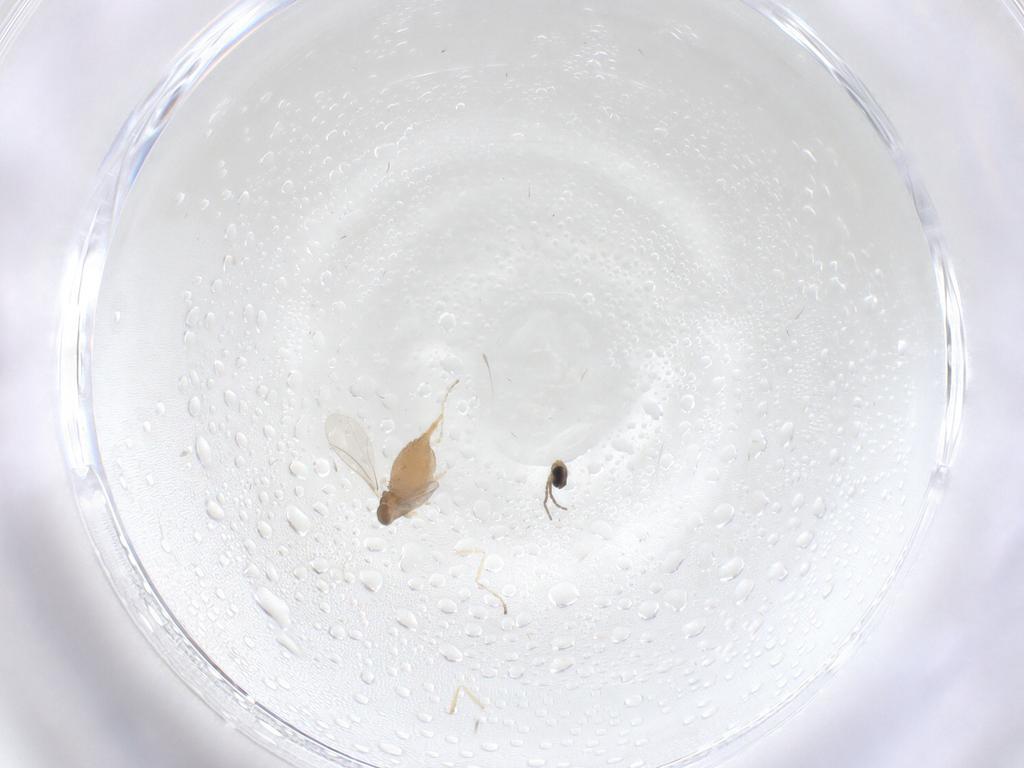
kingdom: Animalia
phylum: Arthropoda
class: Insecta
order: Diptera
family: Cecidomyiidae
